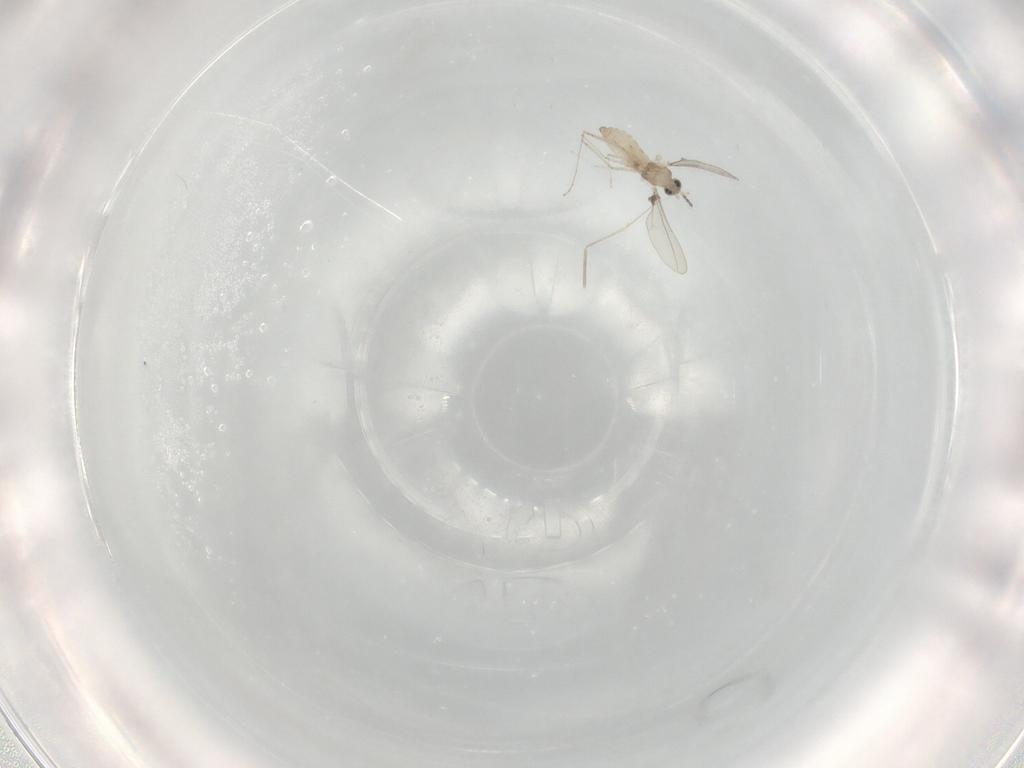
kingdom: Animalia
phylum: Arthropoda
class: Insecta
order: Diptera
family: Cecidomyiidae
